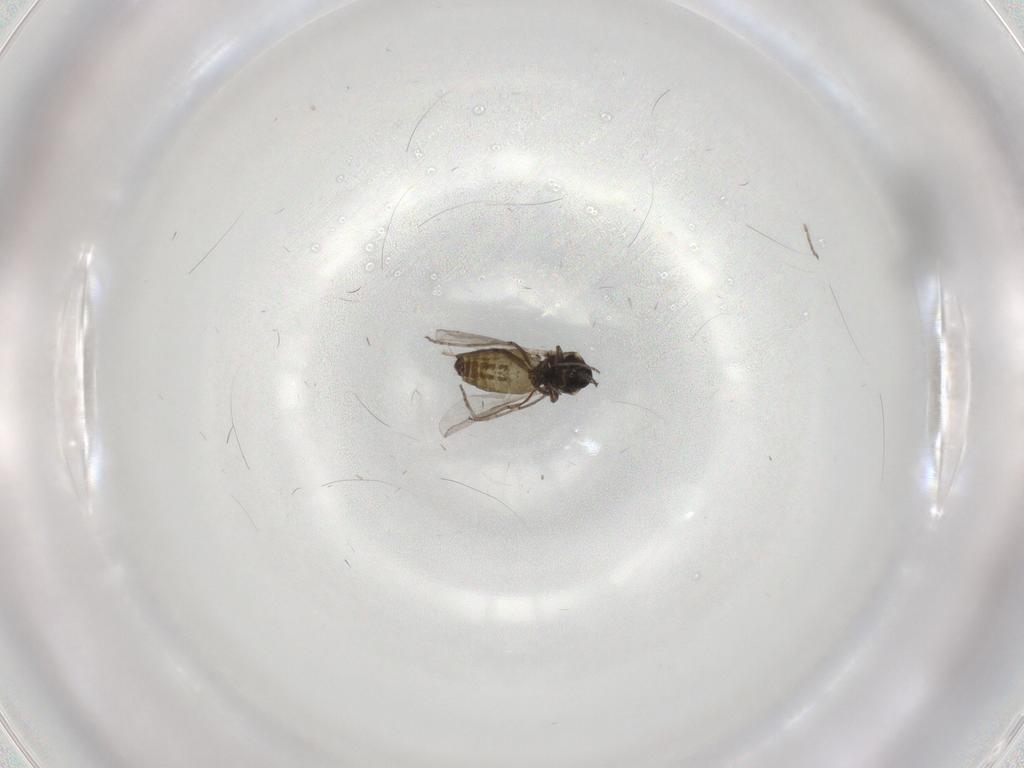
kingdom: Animalia
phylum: Arthropoda
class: Insecta
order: Diptera
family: Ceratopogonidae
